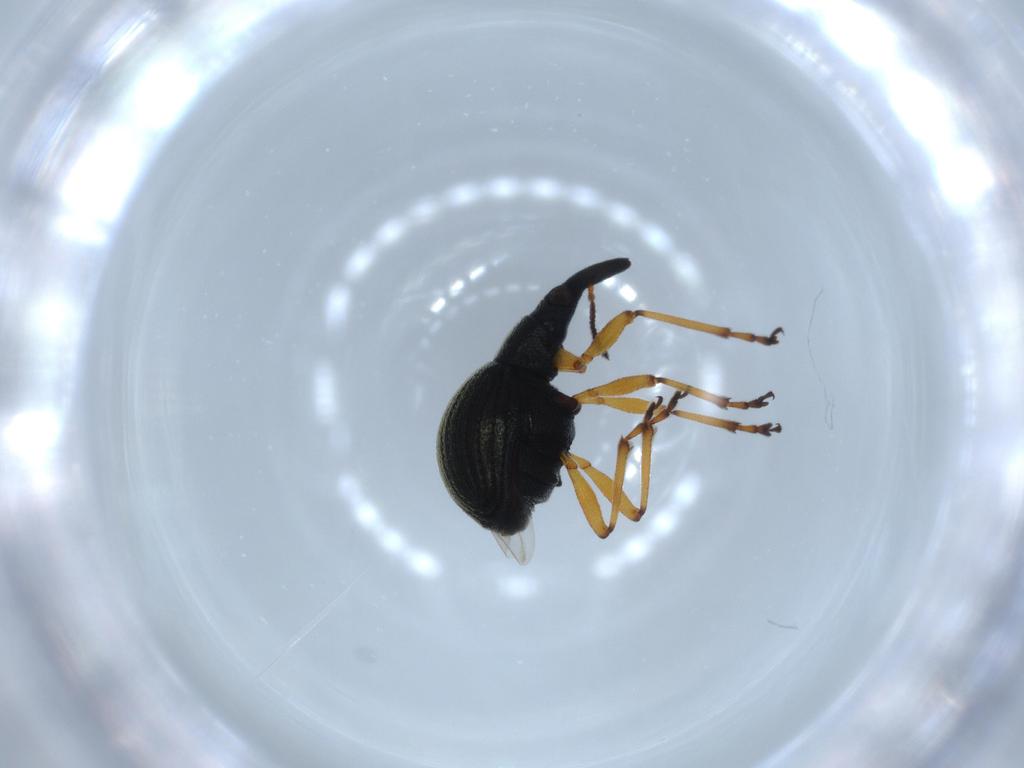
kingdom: Animalia
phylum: Arthropoda
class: Insecta
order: Coleoptera
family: Brentidae
